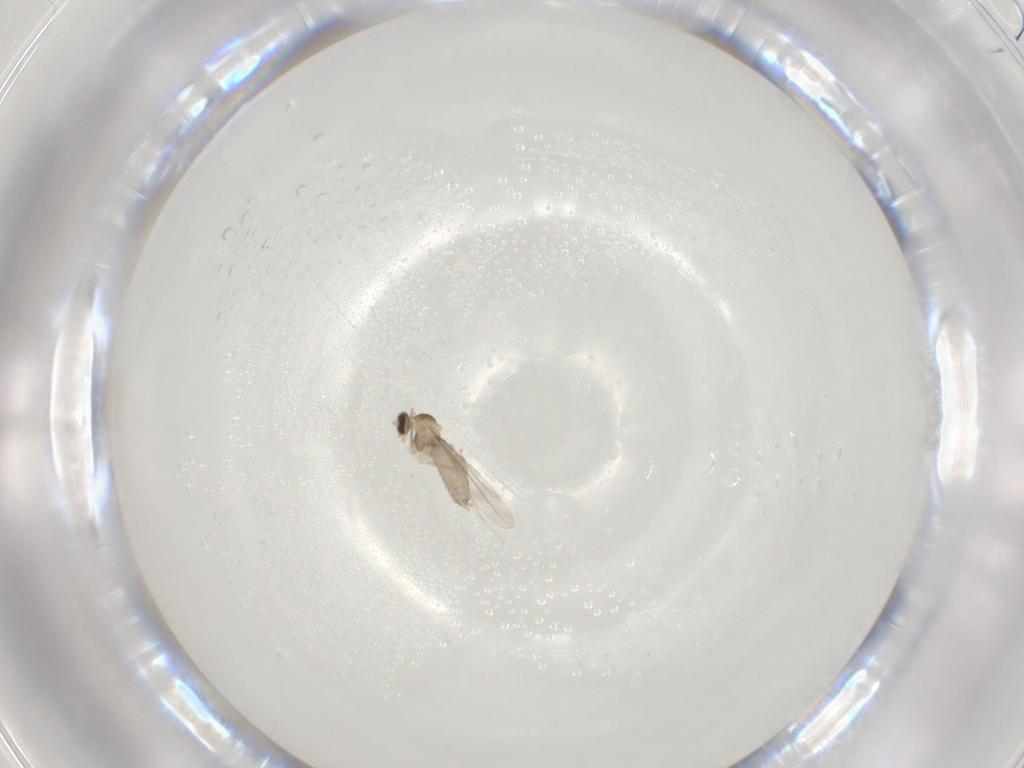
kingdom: Animalia
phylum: Arthropoda
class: Insecta
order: Diptera
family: Cecidomyiidae
